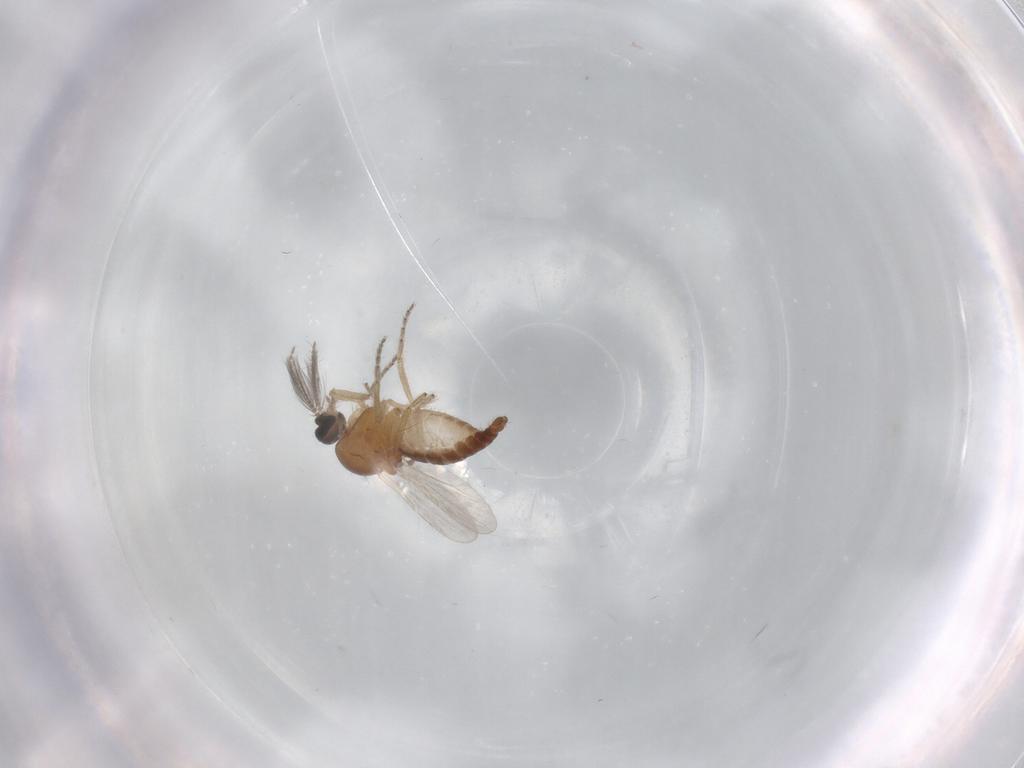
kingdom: Animalia
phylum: Arthropoda
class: Insecta
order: Diptera
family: Ceratopogonidae
